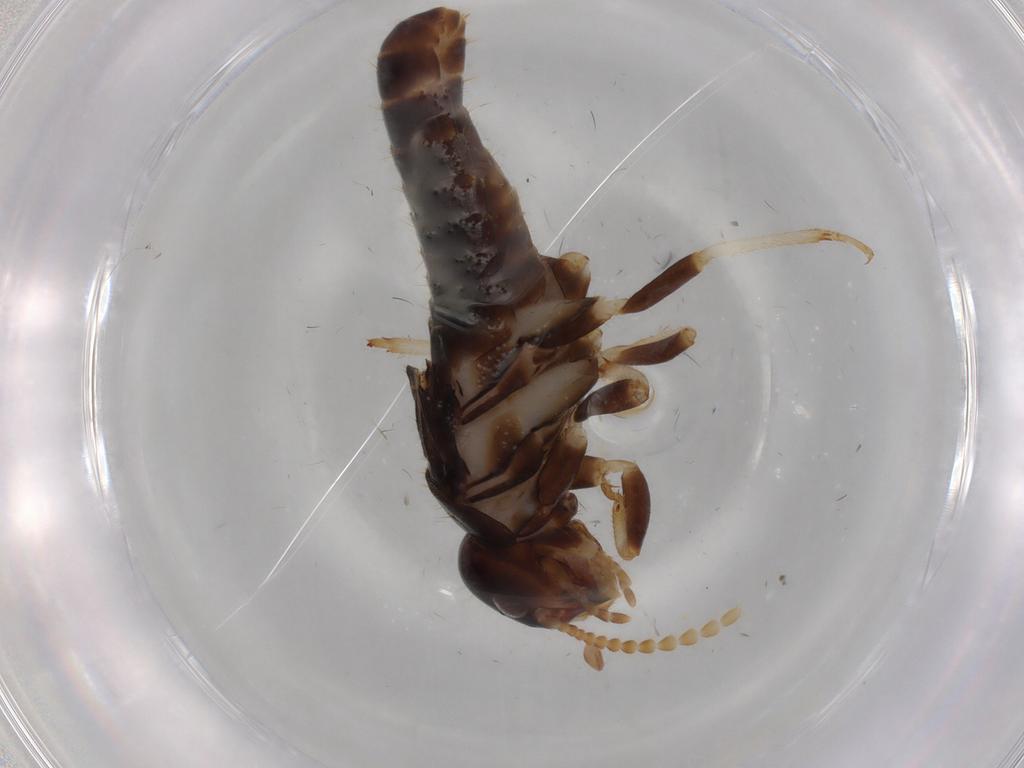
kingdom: Animalia
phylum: Arthropoda
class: Insecta
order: Blattodea
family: Kalotermitidae
